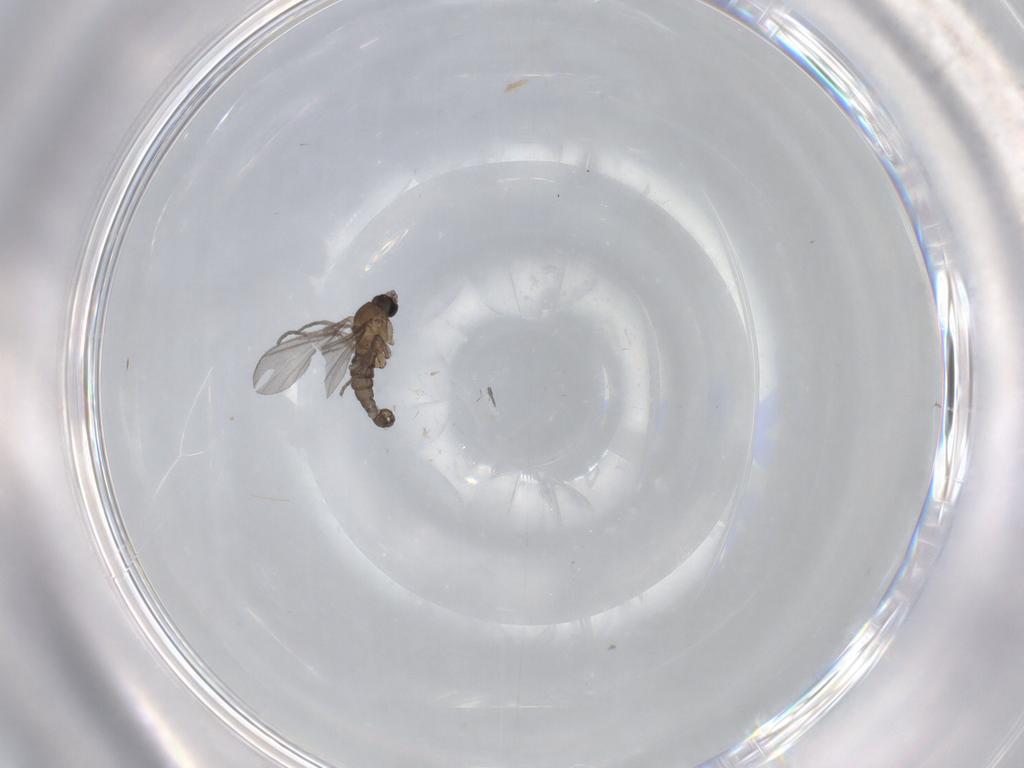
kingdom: Animalia
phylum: Arthropoda
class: Insecta
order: Diptera
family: Sciaridae
